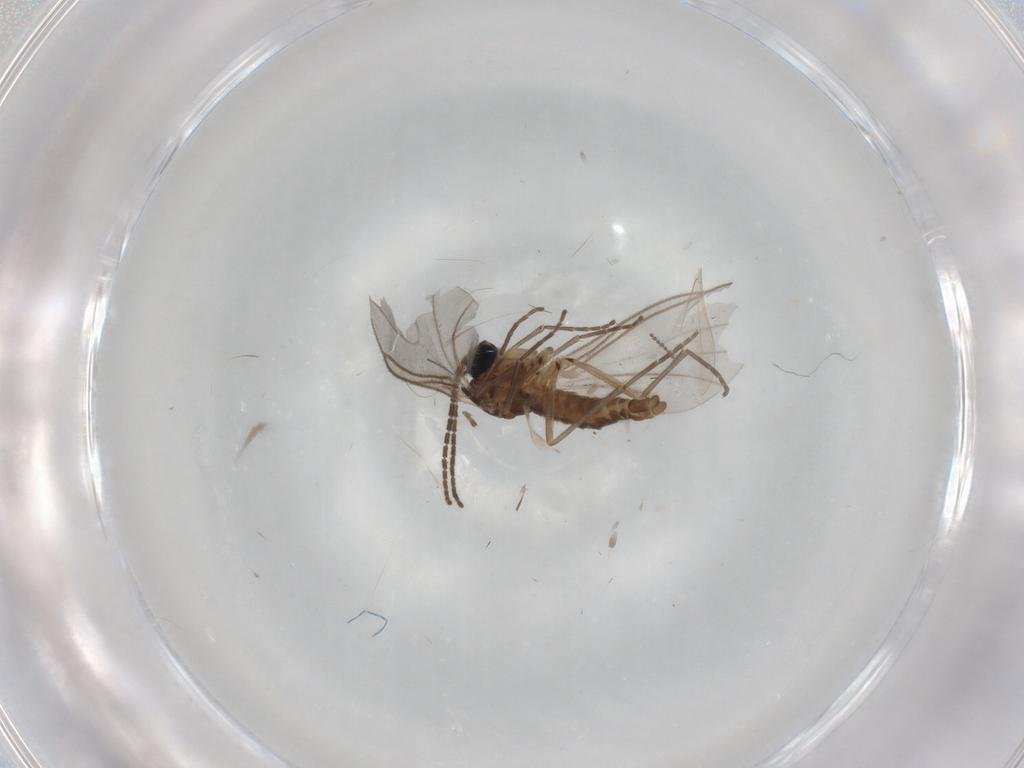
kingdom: Animalia
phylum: Arthropoda
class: Insecta
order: Diptera
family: Sciaridae
